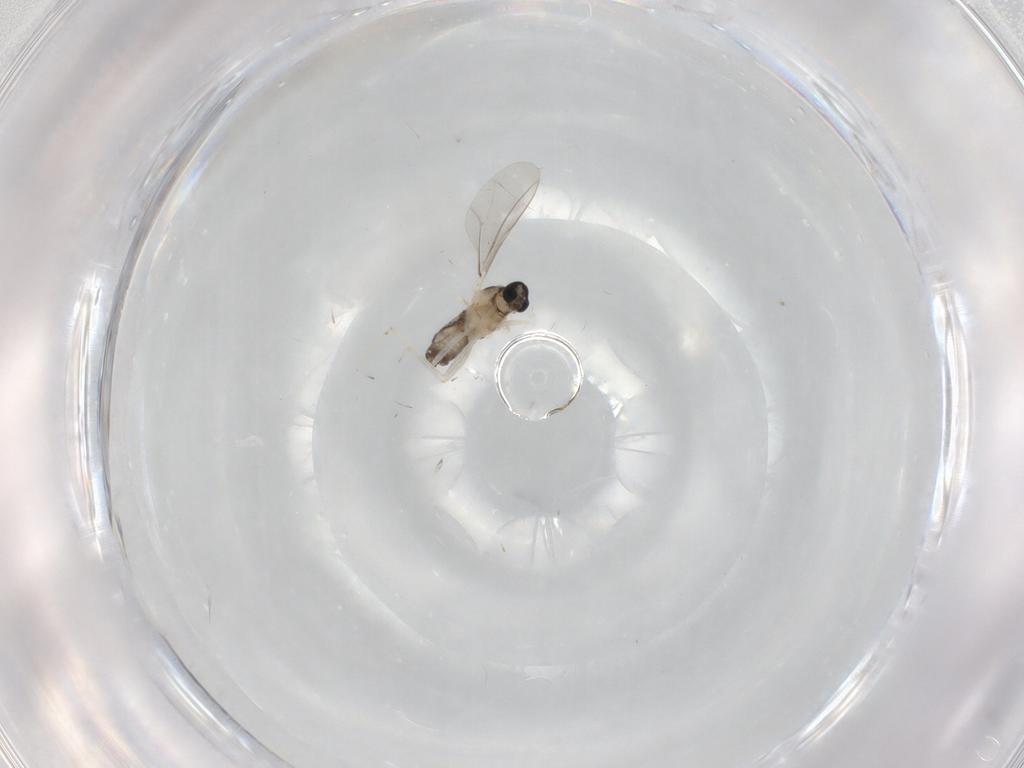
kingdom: Animalia
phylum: Arthropoda
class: Insecta
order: Diptera
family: Cecidomyiidae
